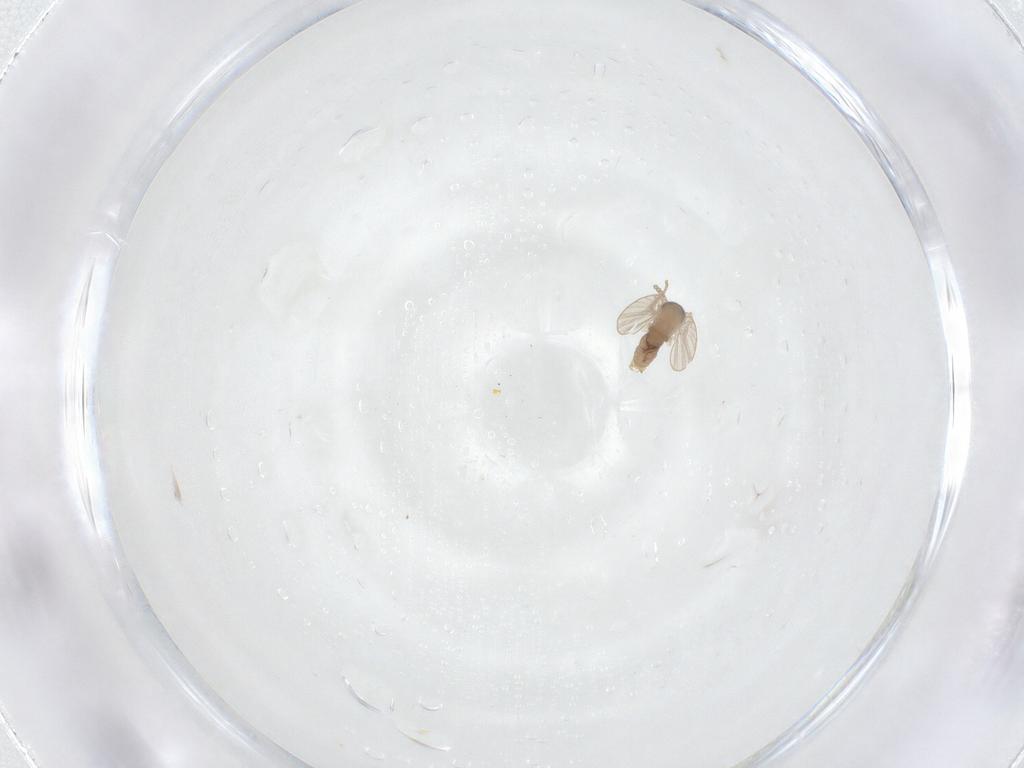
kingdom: Animalia
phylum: Arthropoda
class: Insecta
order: Diptera
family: Psychodidae
